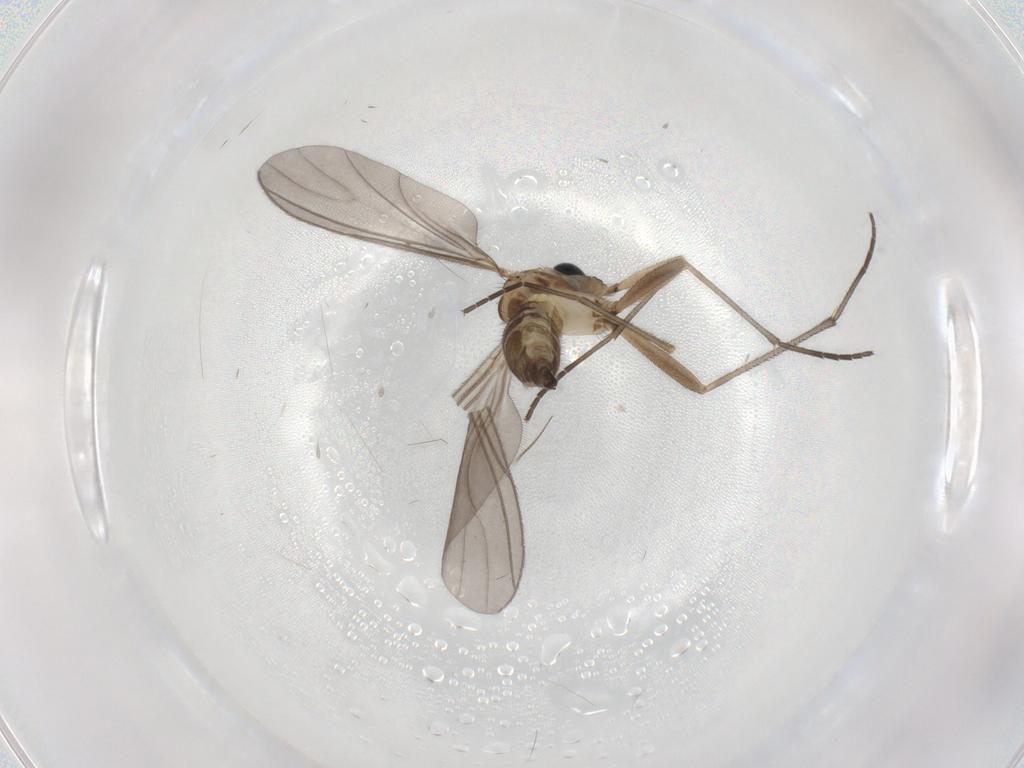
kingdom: Animalia
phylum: Arthropoda
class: Insecta
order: Diptera
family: Sciaridae
